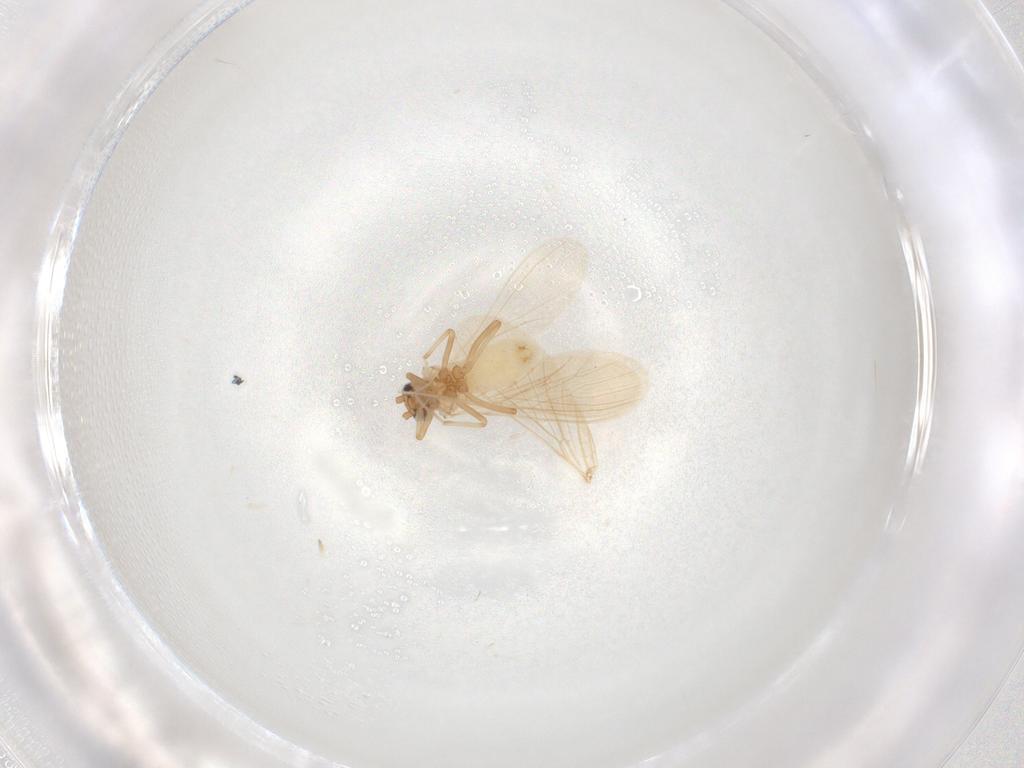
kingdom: Animalia
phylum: Arthropoda
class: Insecta
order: Neuroptera
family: Coniopterygidae
